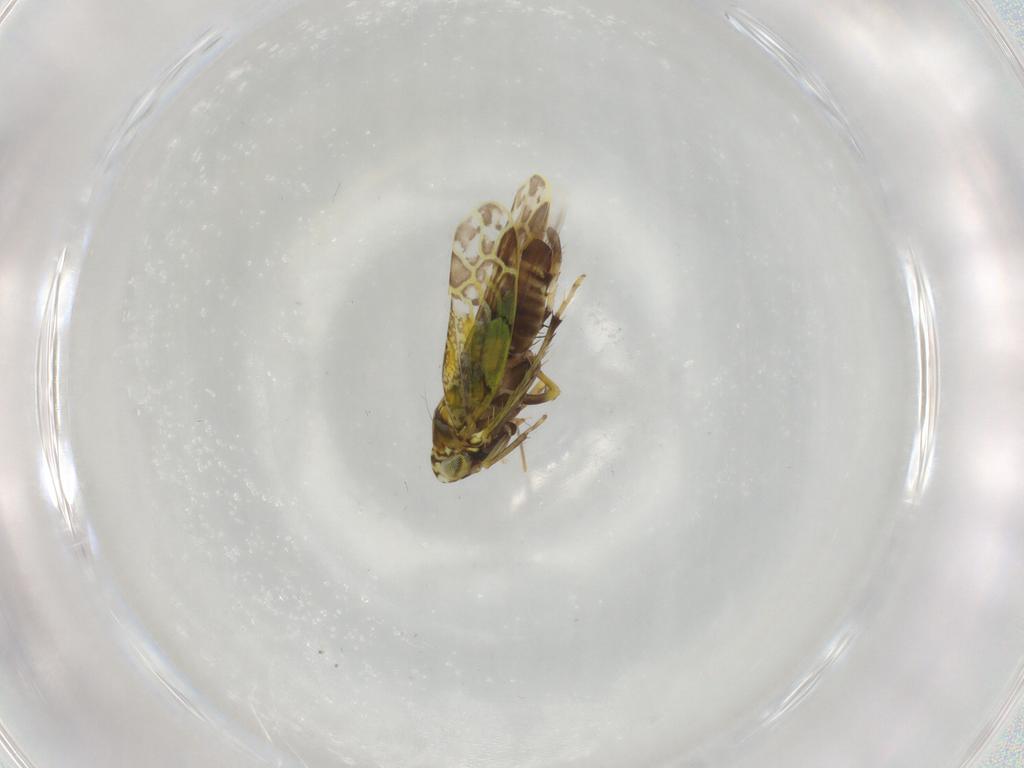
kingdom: Animalia
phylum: Arthropoda
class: Insecta
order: Hemiptera
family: Cicadellidae
